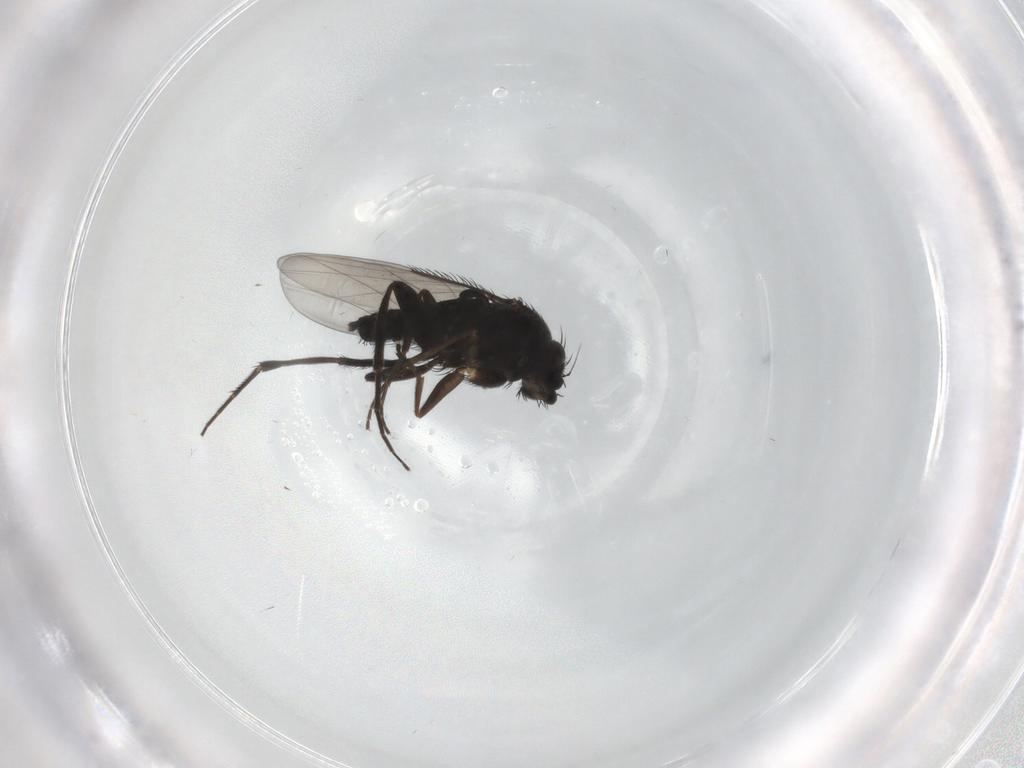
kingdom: Animalia
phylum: Arthropoda
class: Insecta
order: Diptera
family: Phoridae
